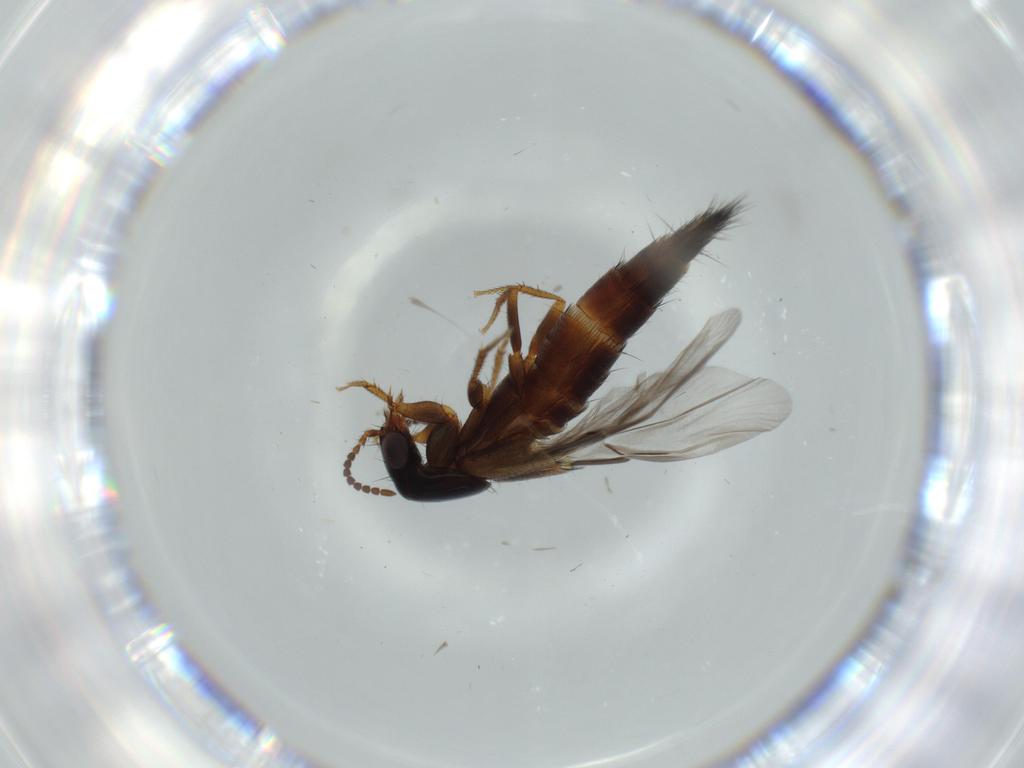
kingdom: Animalia
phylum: Arthropoda
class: Insecta
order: Coleoptera
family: Staphylinidae
